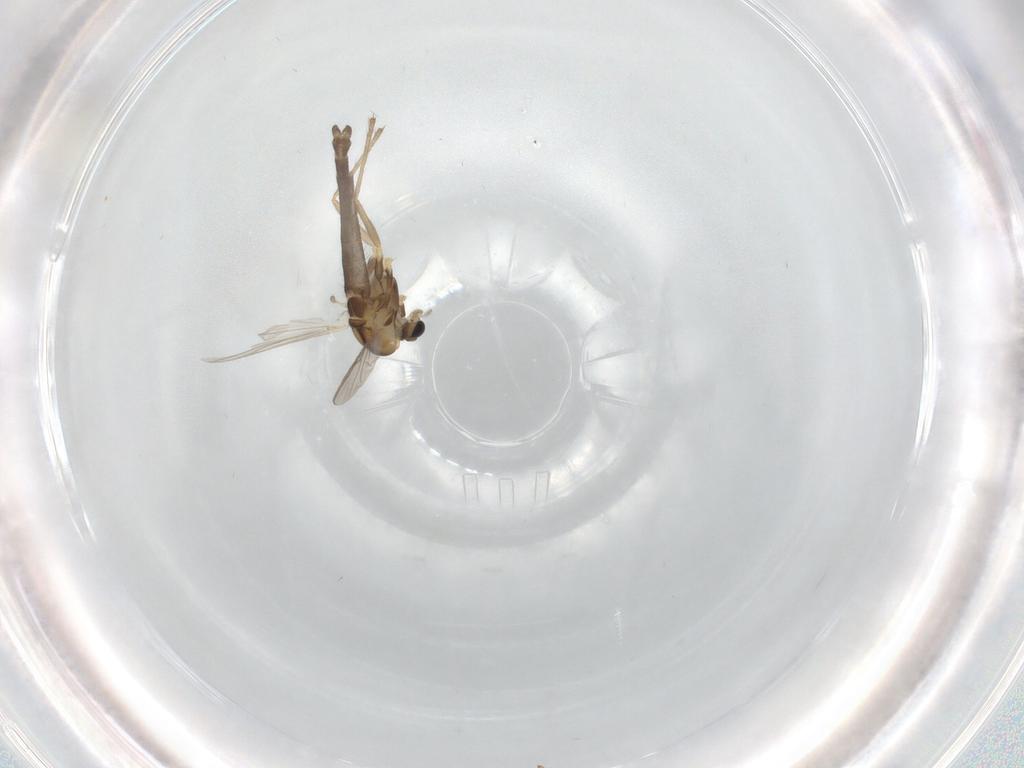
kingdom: Animalia
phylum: Arthropoda
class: Insecta
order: Diptera
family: Chironomidae
